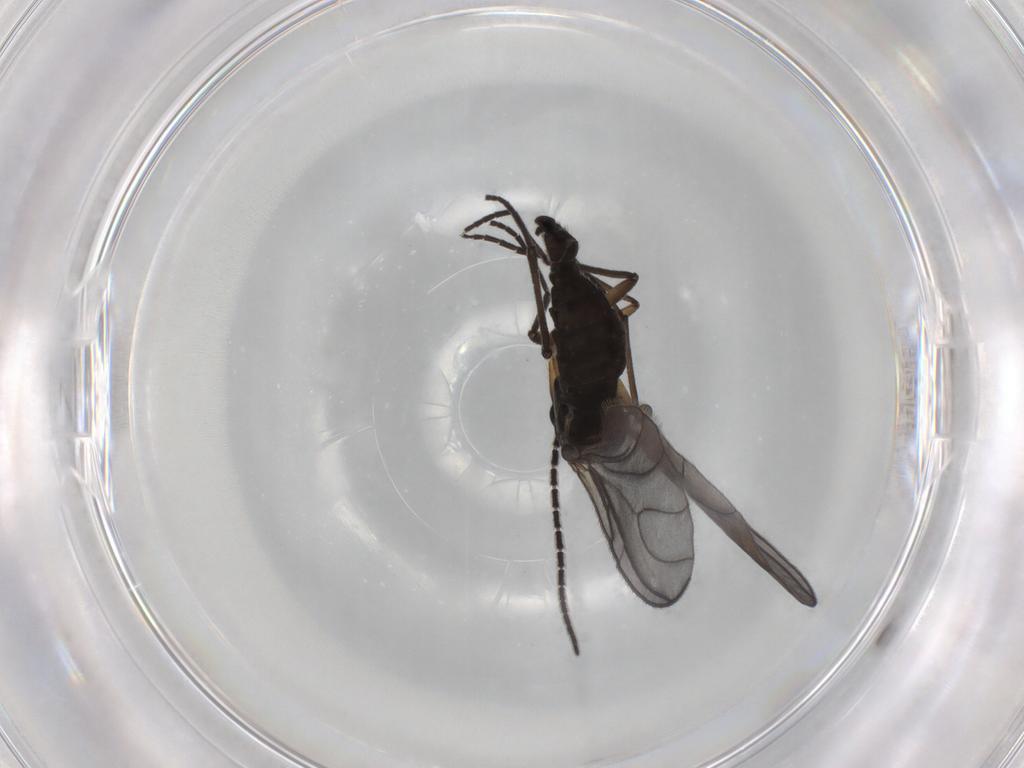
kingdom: Animalia
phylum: Arthropoda
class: Insecta
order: Diptera
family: Sciaridae
